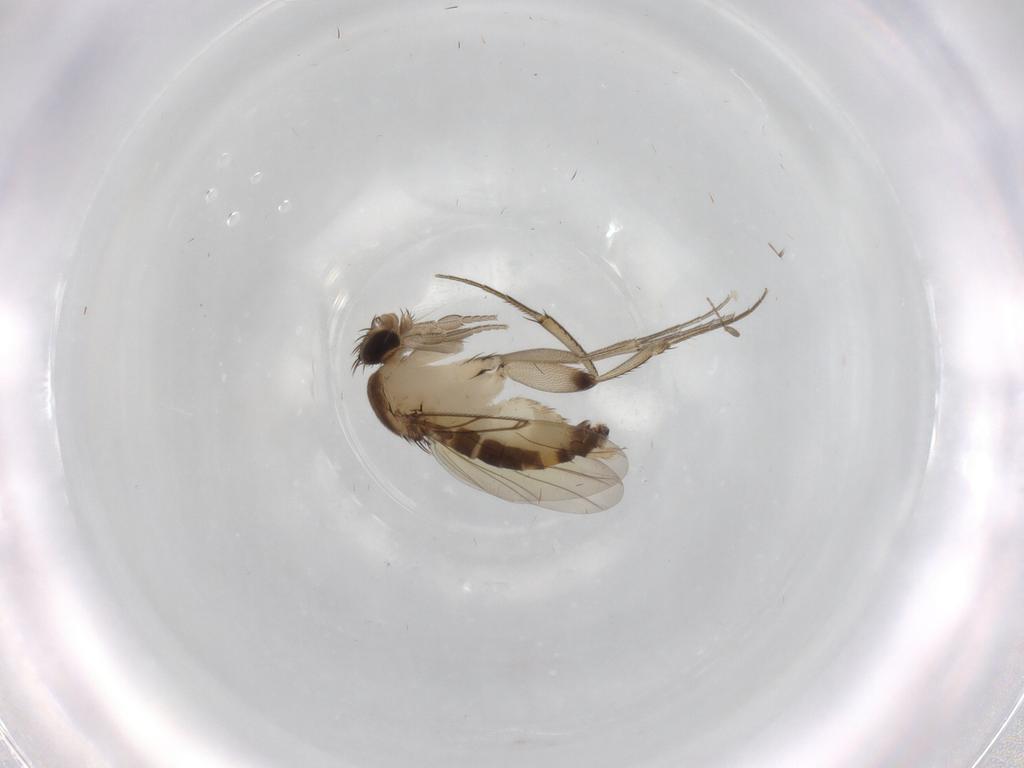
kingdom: Animalia
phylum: Arthropoda
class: Insecta
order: Diptera
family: Phoridae
